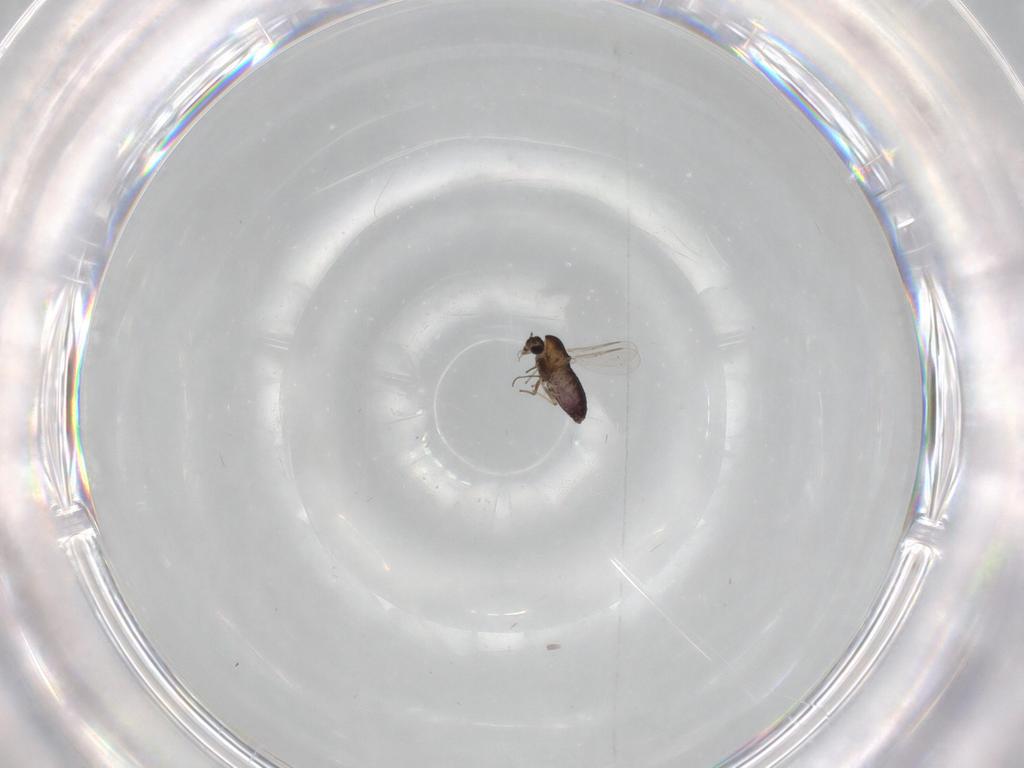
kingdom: Animalia
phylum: Arthropoda
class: Insecta
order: Diptera
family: Chironomidae
